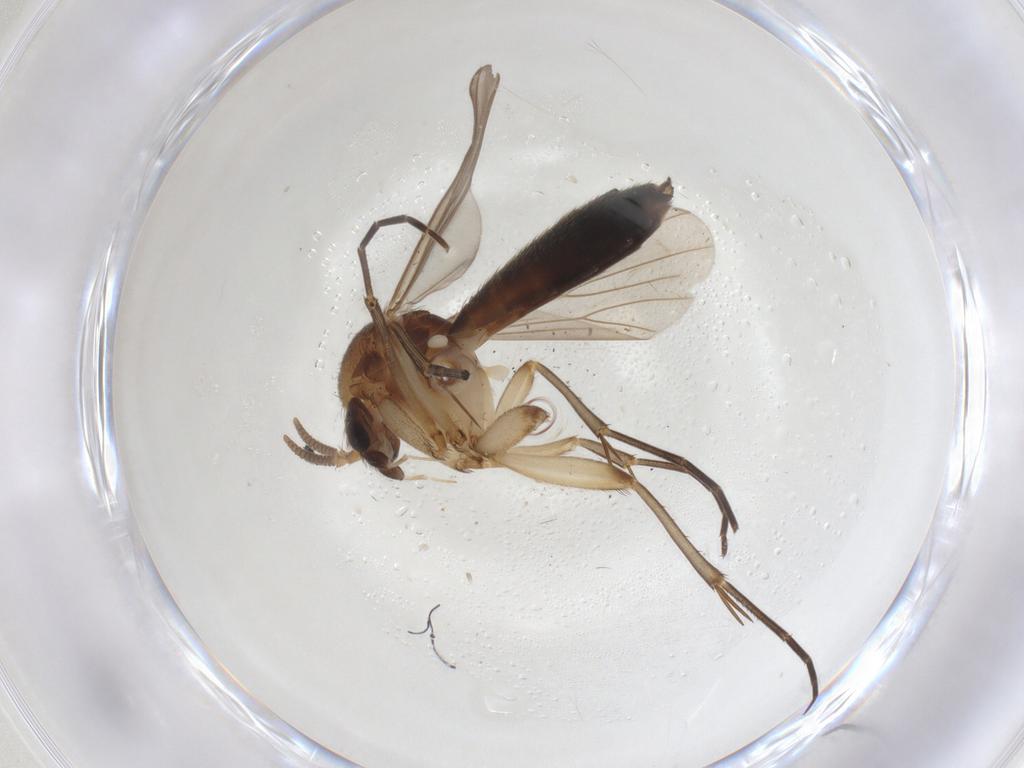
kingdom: Animalia
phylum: Arthropoda
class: Insecta
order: Diptera
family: Mycetophilidae
